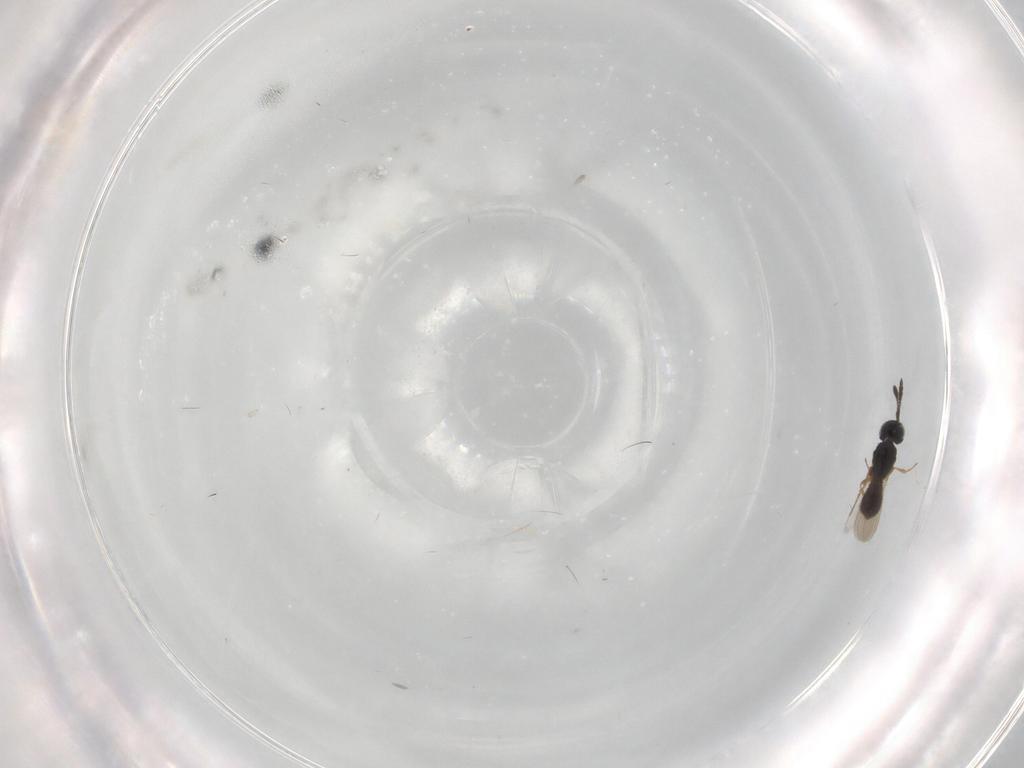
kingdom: Animalia
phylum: Arthropoda
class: Insecta
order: Hymenoptera
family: Scelionidae
